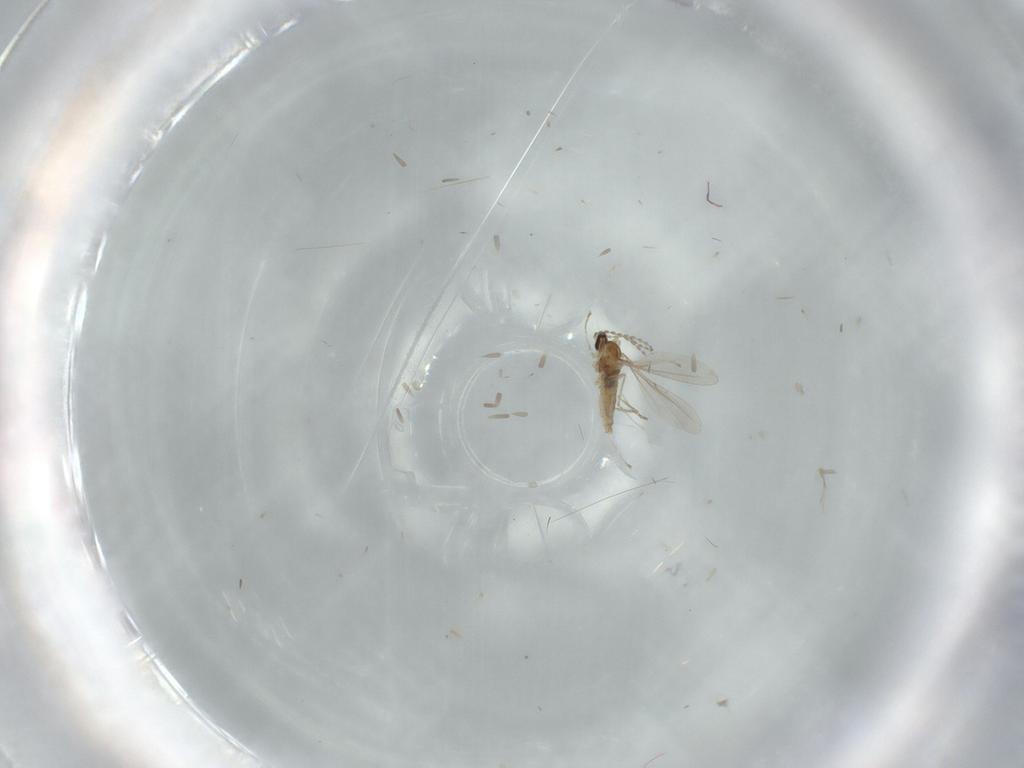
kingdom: Animalia
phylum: Arthropoda
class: Insecta
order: Diptera
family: Cecidomyiidae
